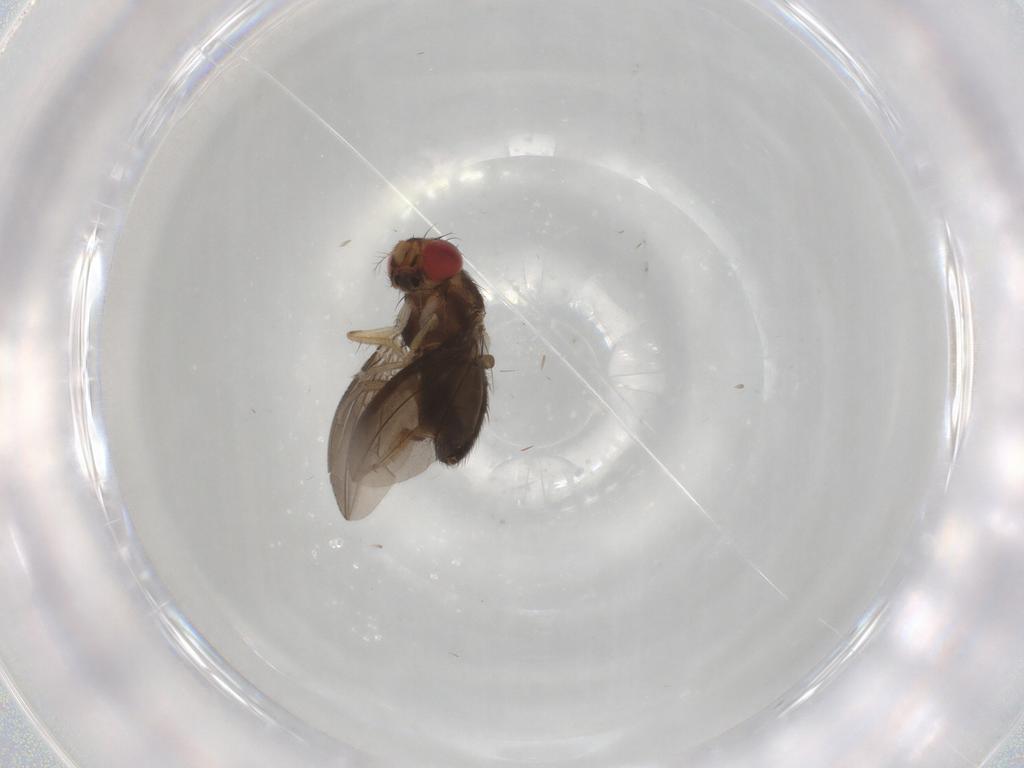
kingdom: Animalia
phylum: Arthropoda
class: Insecta
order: Diptera
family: Phoridae
